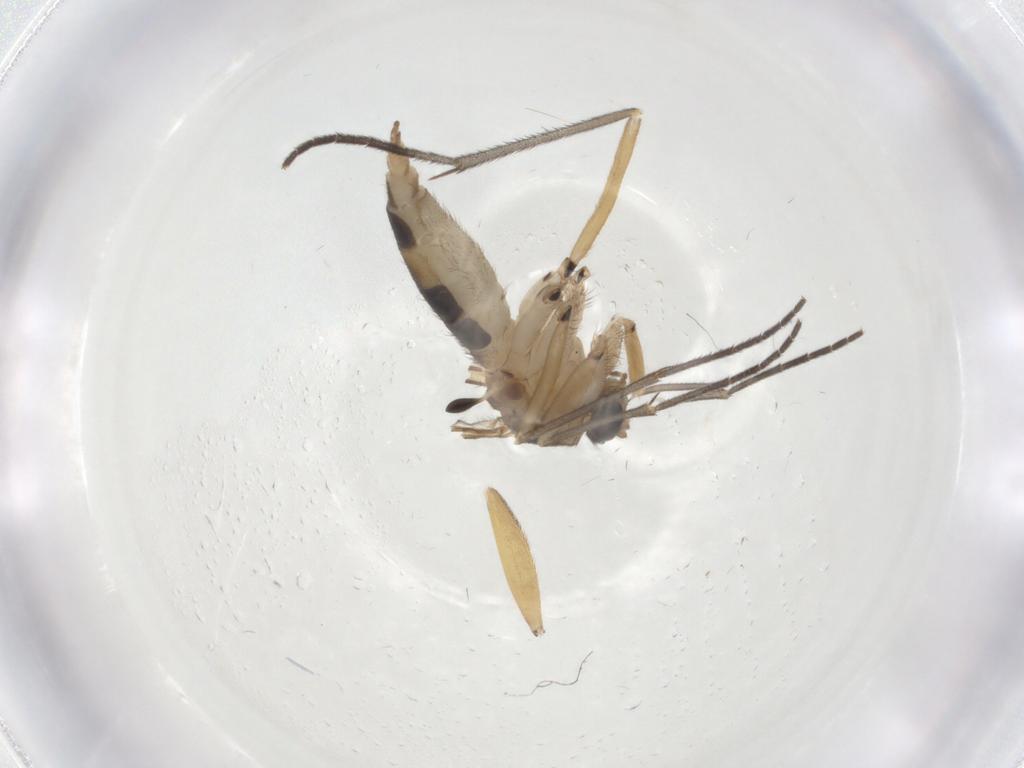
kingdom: Animalia
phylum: Arthropoda
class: Insecta
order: Diptera
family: Sciaridae
